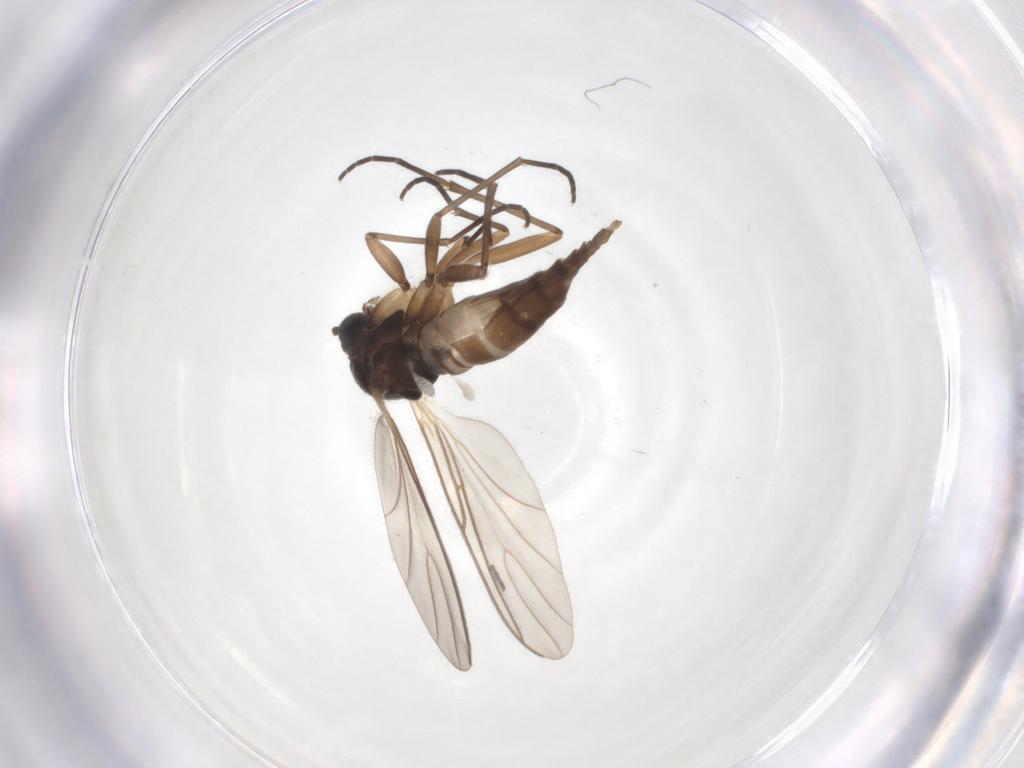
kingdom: Animalia
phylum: Arthropoda
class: Insecta
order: Diptera
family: Sciaridae
